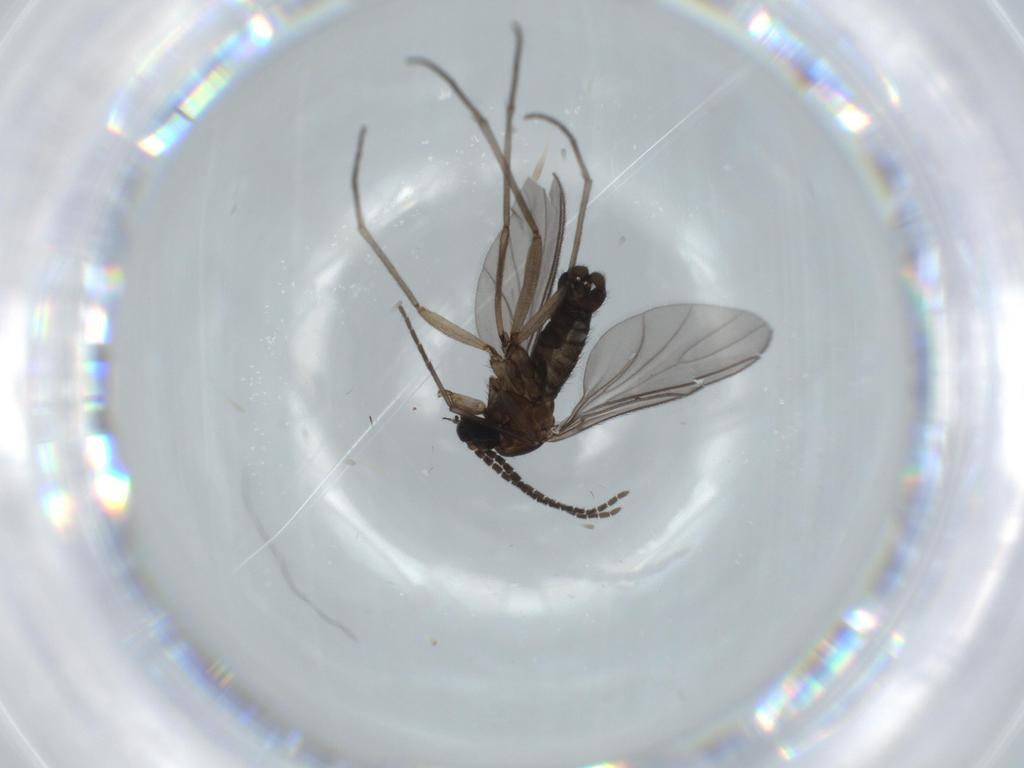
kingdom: Animalia
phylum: Arthropoda
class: Insecta
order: Diptera
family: Sciaridae
